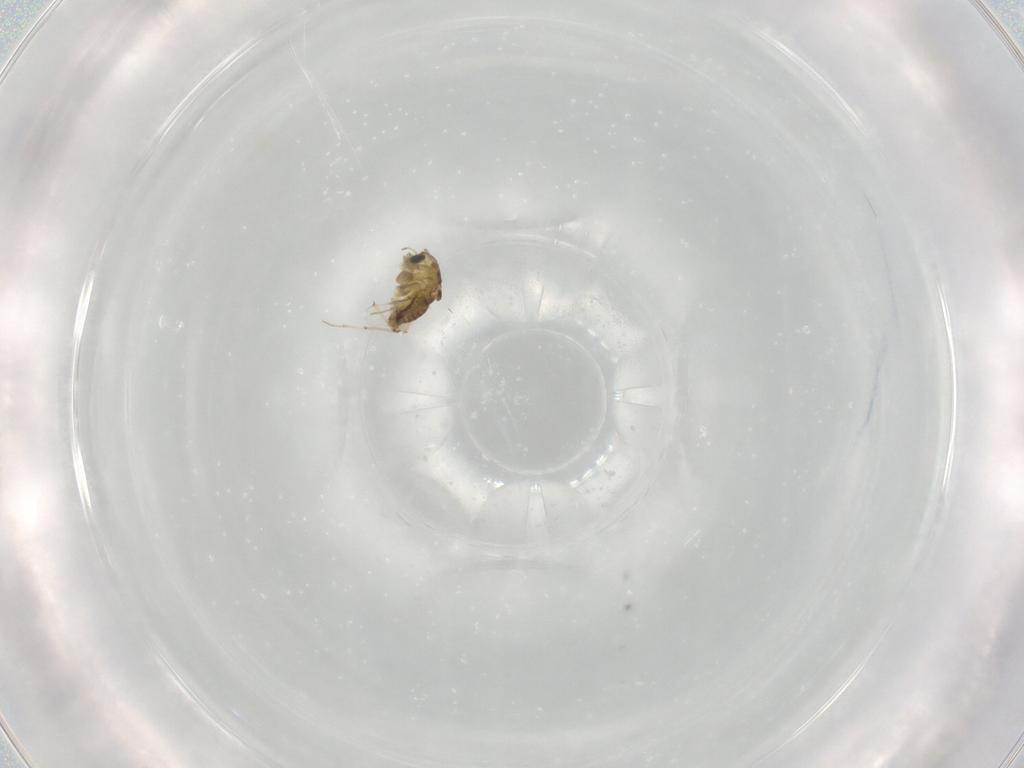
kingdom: Animalia
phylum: Arthropoda
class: Insecta
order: Diptera
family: Chironomidae
